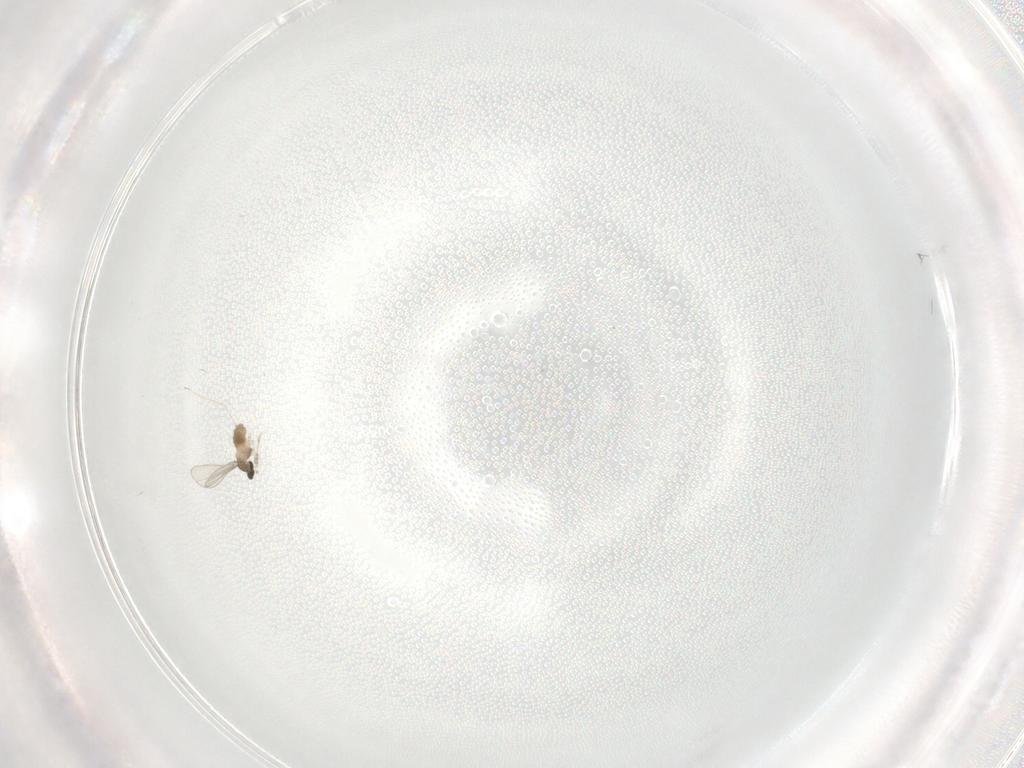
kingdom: Animalia
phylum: Arthropoda
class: Insecta
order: Diptera
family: Cecidomyiidae
